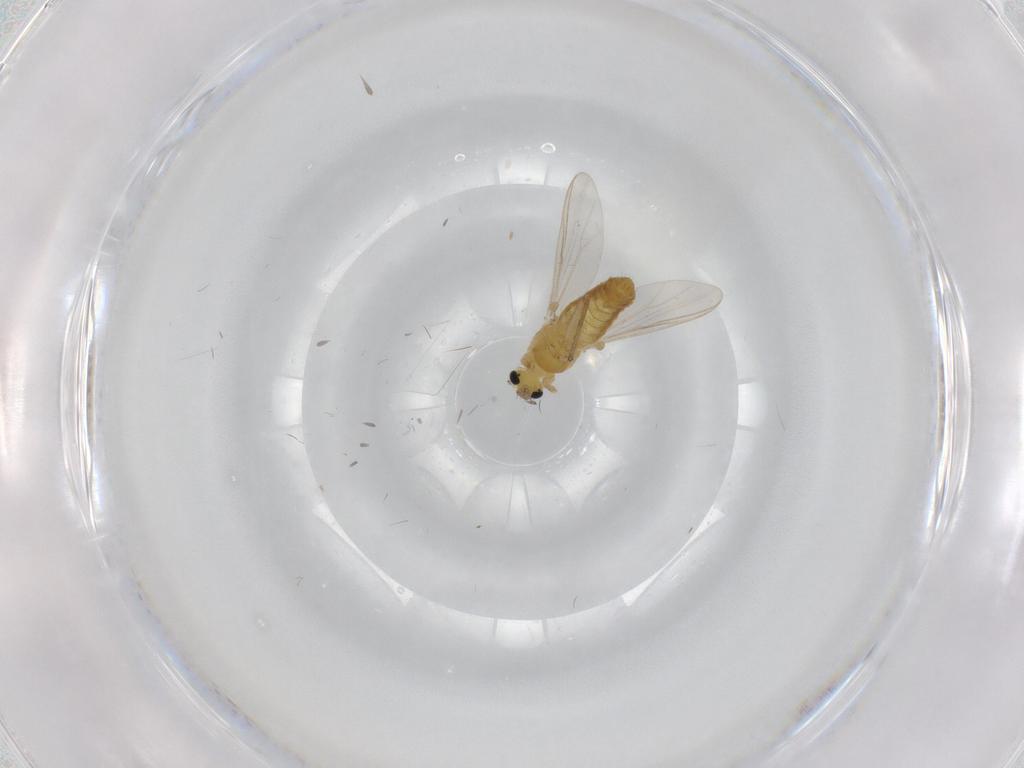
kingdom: Animalia
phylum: Arthropoda
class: Insecta
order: Diptera
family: Chironomidae
